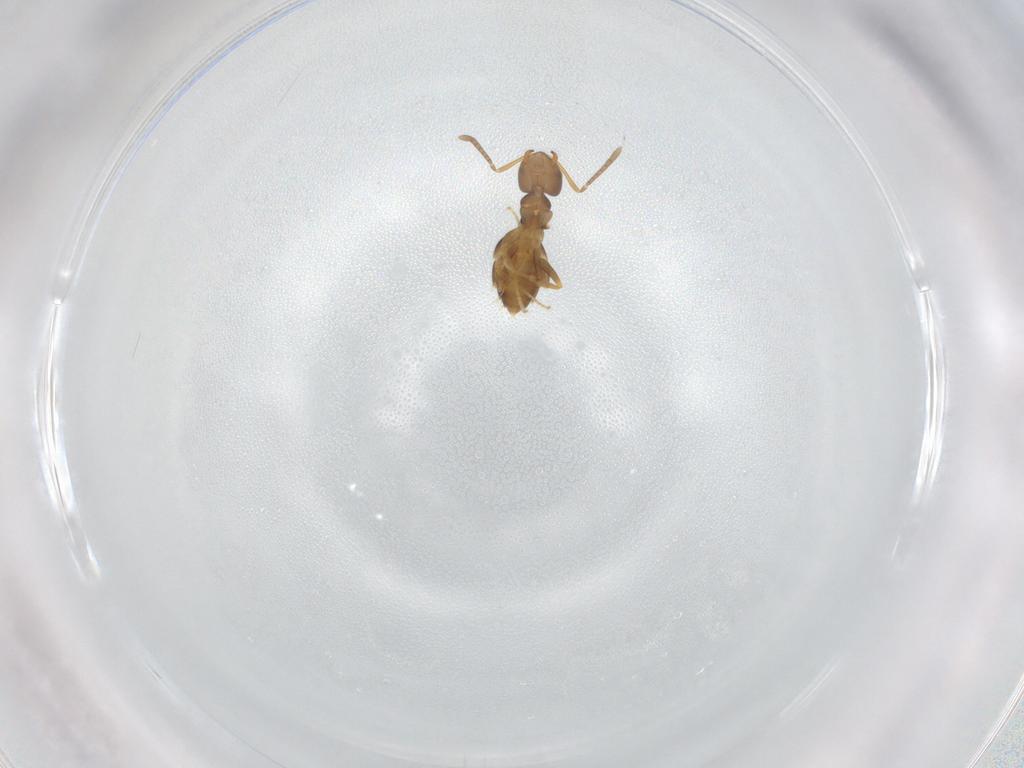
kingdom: Animalia
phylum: Arthropoda
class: Insecta
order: Hymenoptera
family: Formicidae
